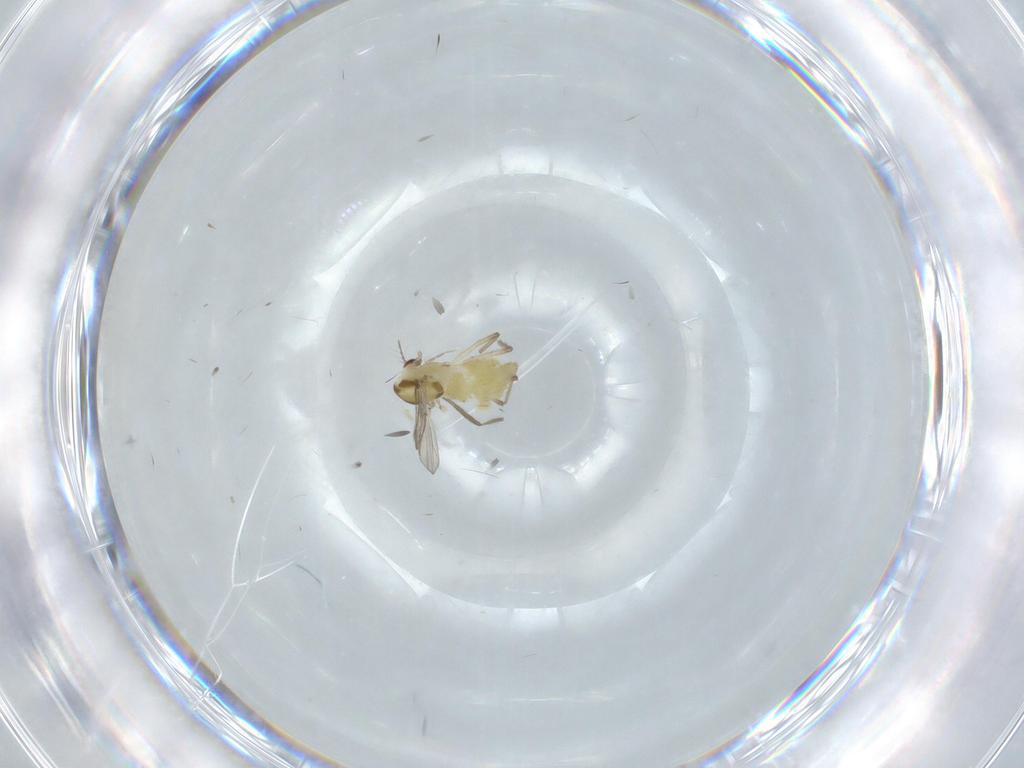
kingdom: Animalia
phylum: Arthropoda
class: Insecta
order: Diptera
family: Chironomidae
